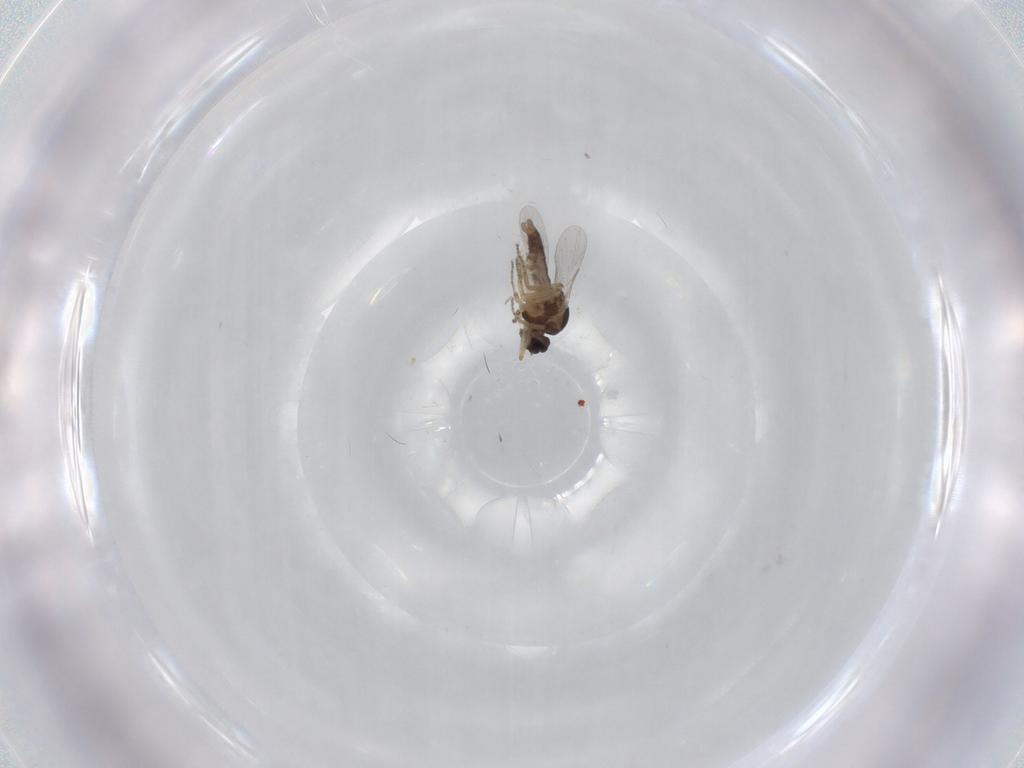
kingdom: Animalia
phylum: Arthropoda
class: Insecta
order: Diptera
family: Ceratopogonidae
